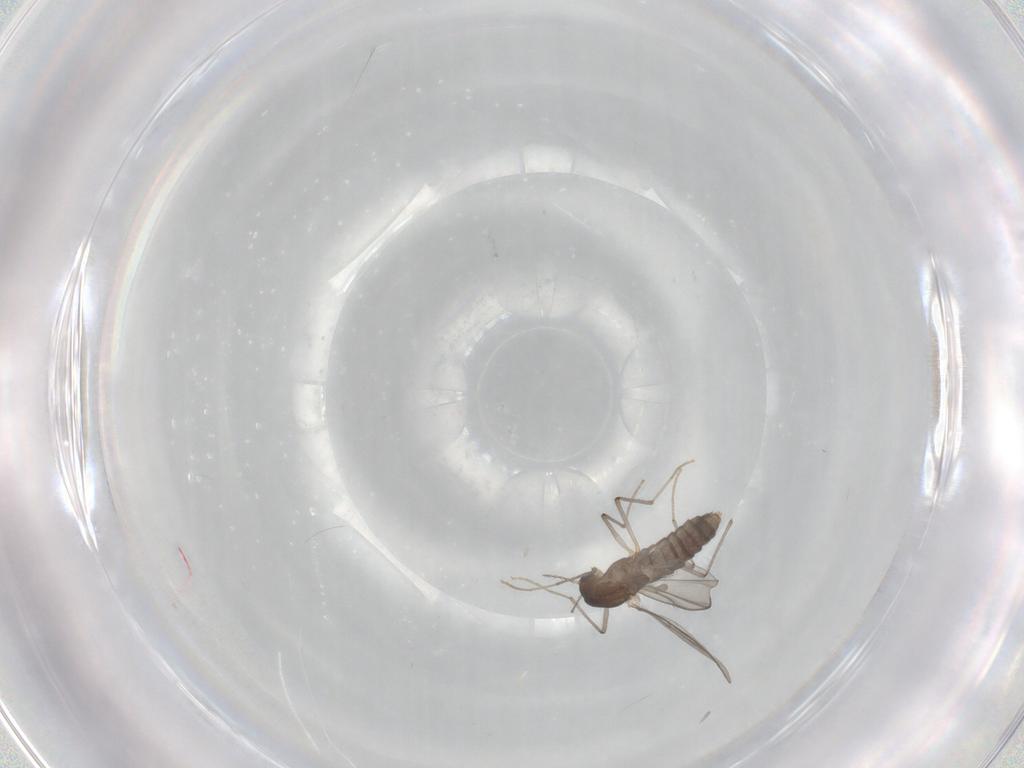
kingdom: Animalia
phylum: Arthropoda
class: Insecta
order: Diptera
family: Chironomidae
